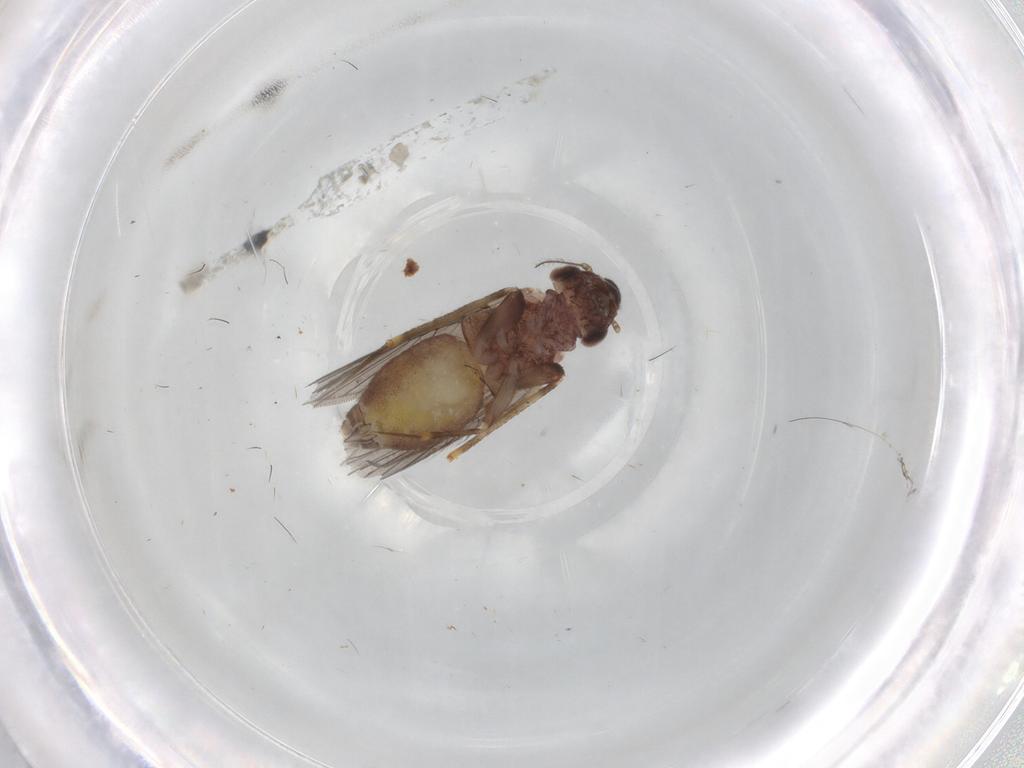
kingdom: Animalia
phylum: Arthropoda
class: Insecta
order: Psocodea
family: Lepidopsocidae
